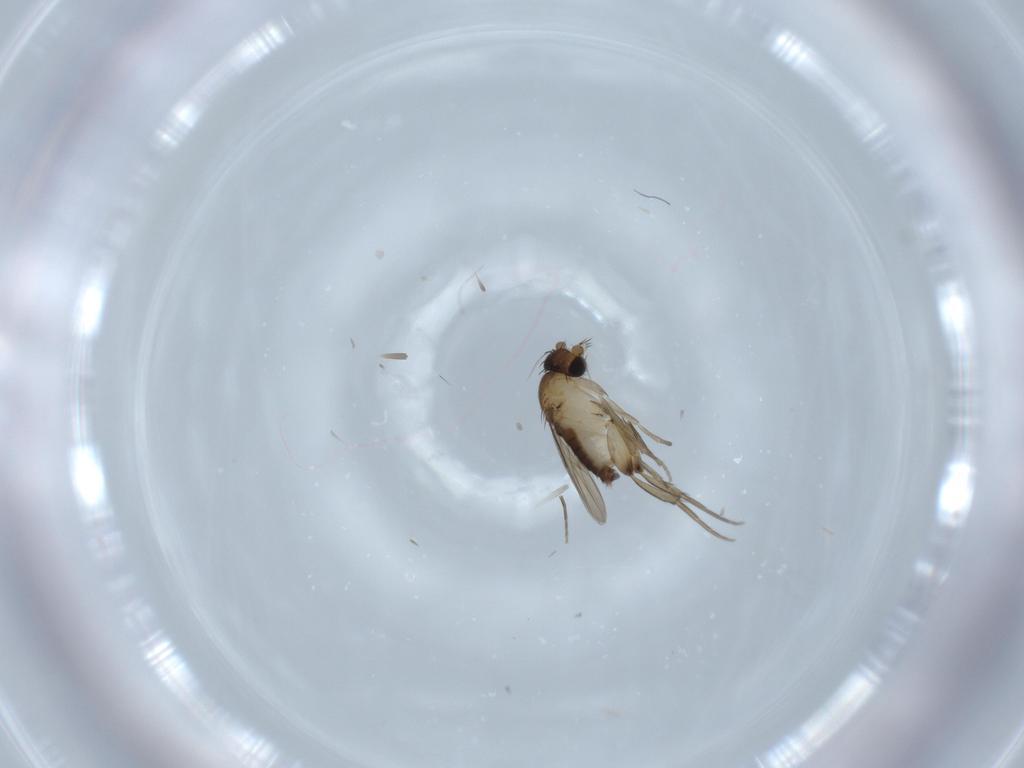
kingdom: Animalia
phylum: Arthropoda
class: Insecta
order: Diptera
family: Phoridae
